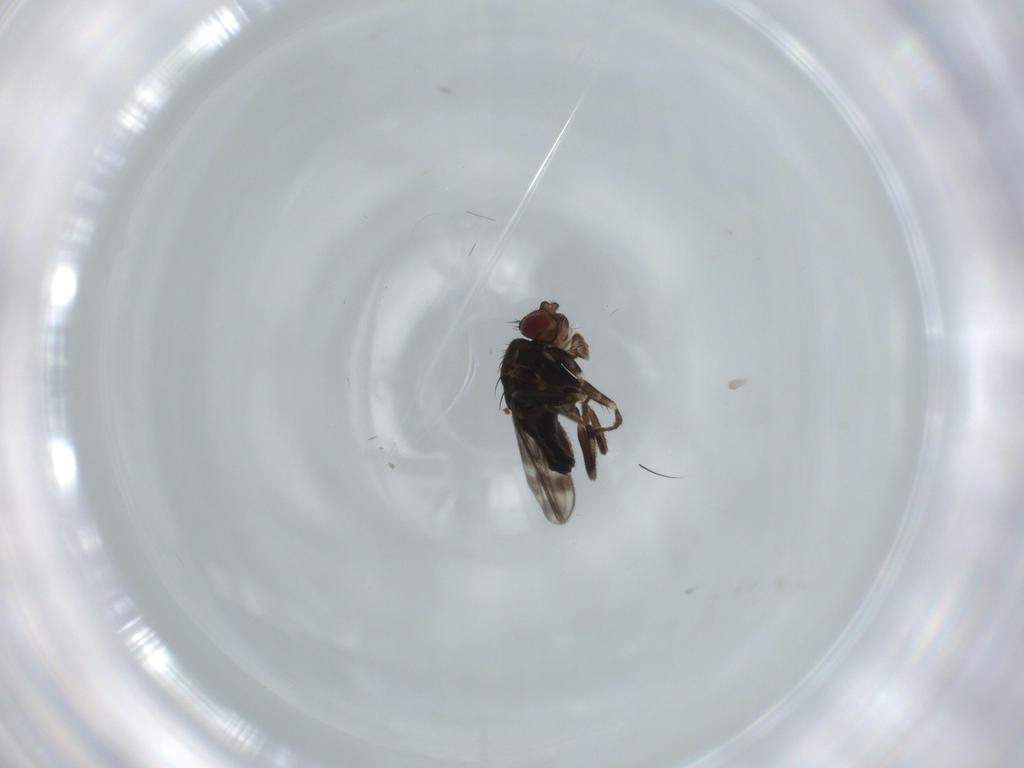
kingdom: Animalia
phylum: Arthropoda
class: Insecta
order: Diptera
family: Sphaeroceridae
